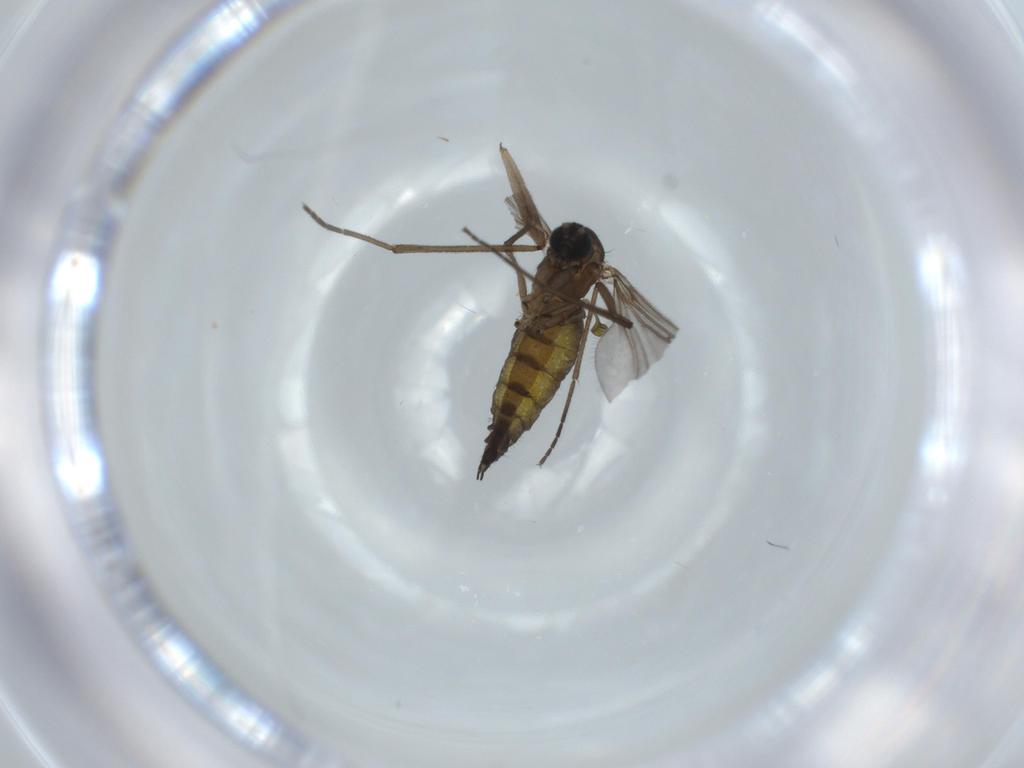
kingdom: Animalia
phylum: Arthropoda
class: Insecta
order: Diptera
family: Sciaridae
